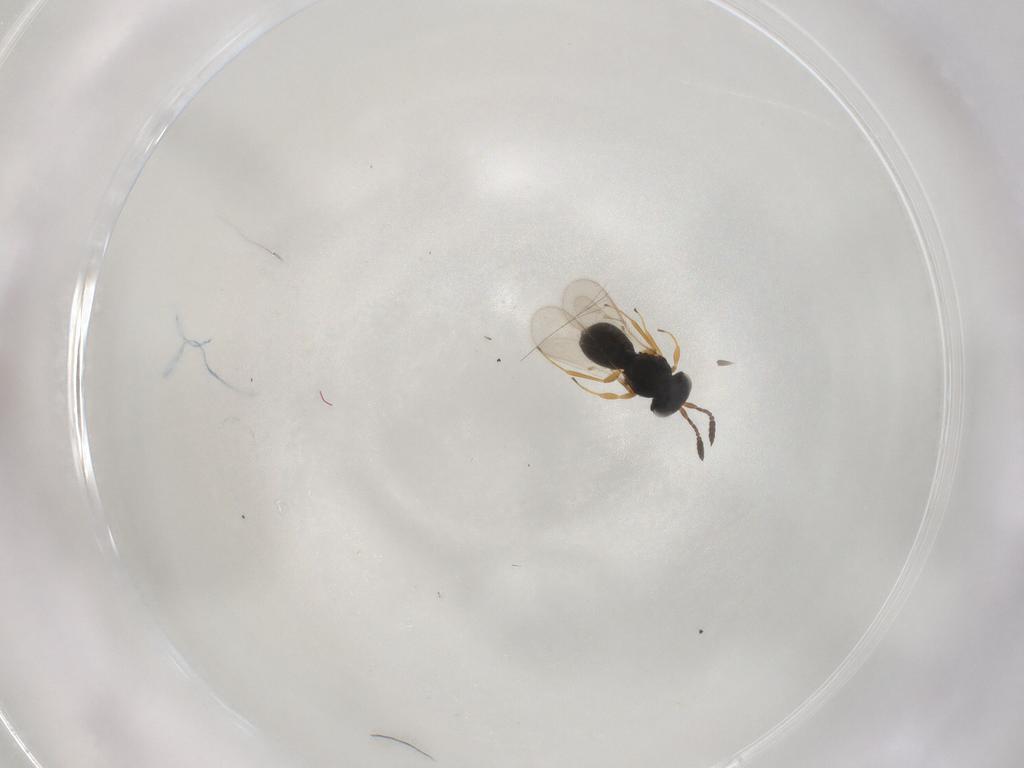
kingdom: Animalia
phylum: Arthropoda
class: Insecta
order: Hymenoptera
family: Scelionidae
